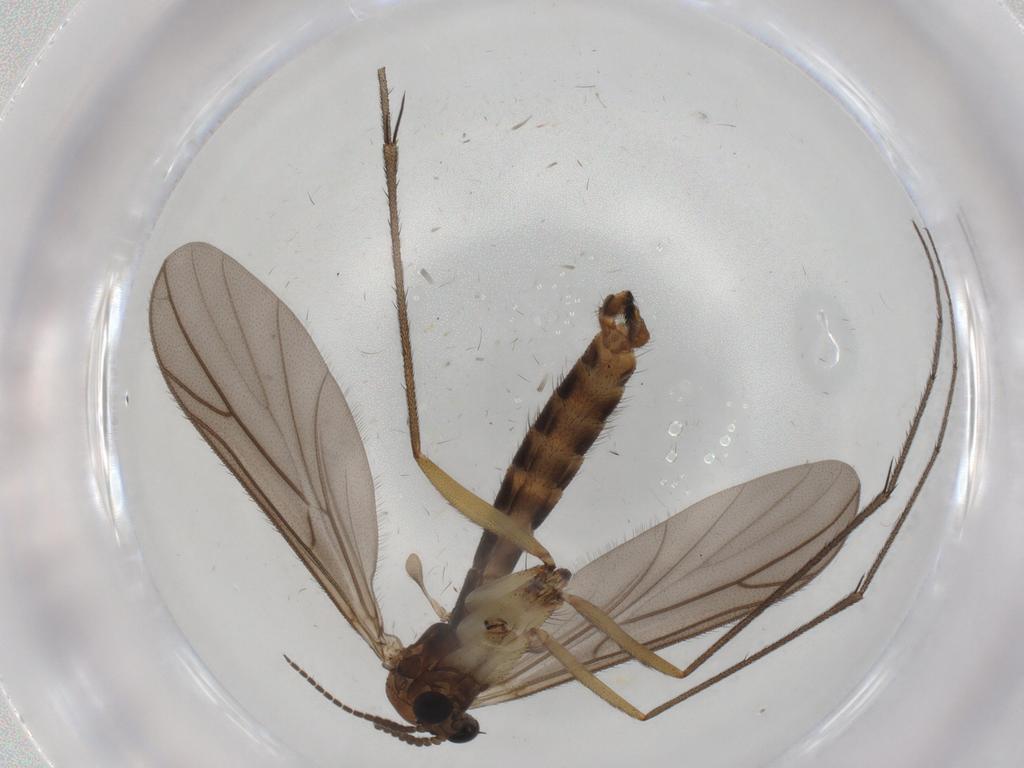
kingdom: Animalia
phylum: Arthropoda
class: Insecta
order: Diptera
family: Ditomyiidae
